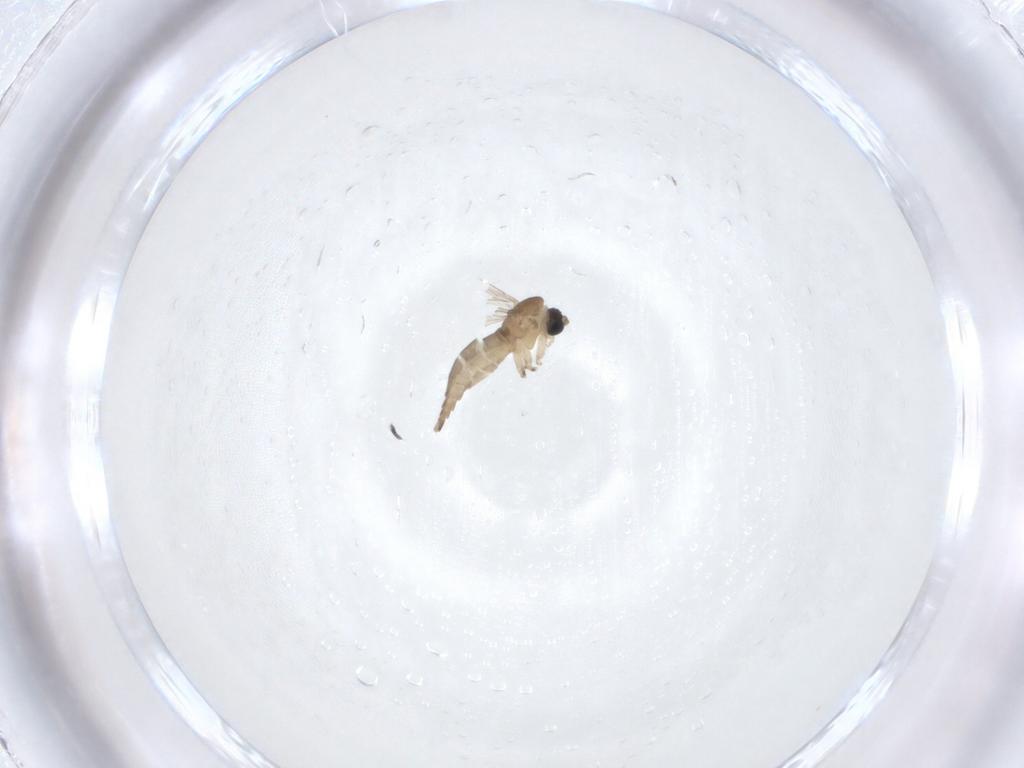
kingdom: Animalia
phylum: Arthropoda
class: Insecta
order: Diptera
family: Sciaridae
